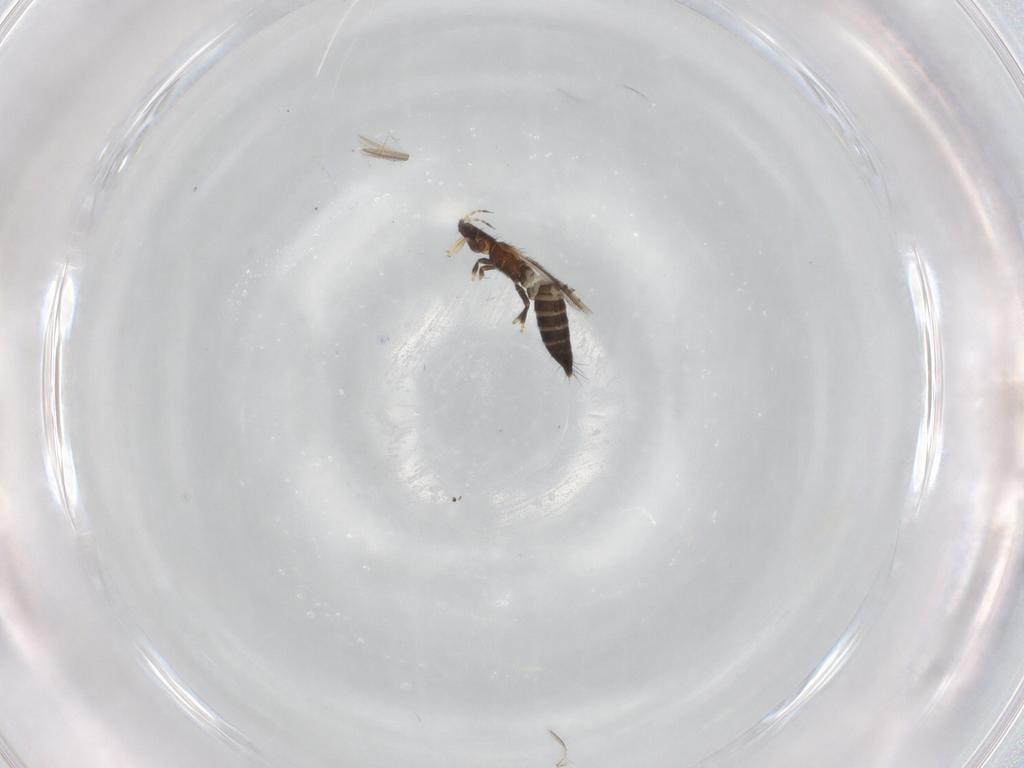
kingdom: Animalia
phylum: Arthropoda
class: Insecta
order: Thysanoptera
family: Thripidae
